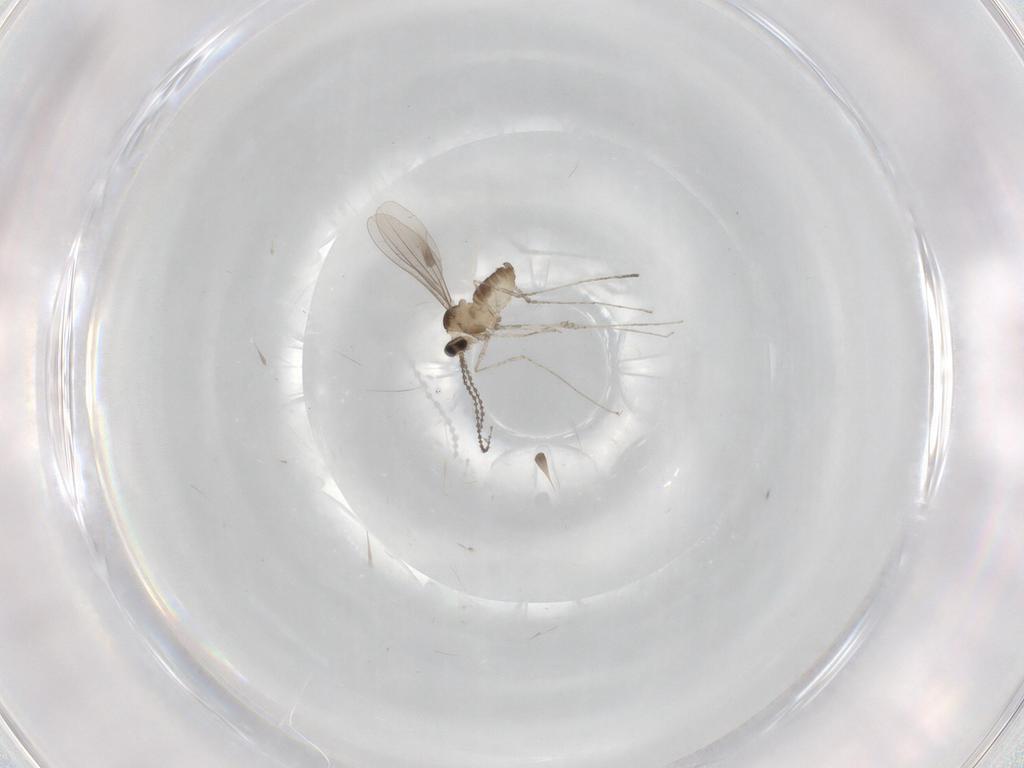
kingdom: Animalia
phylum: Arthropoda
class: Insecta
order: Diptera
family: Cecidomyiidae
